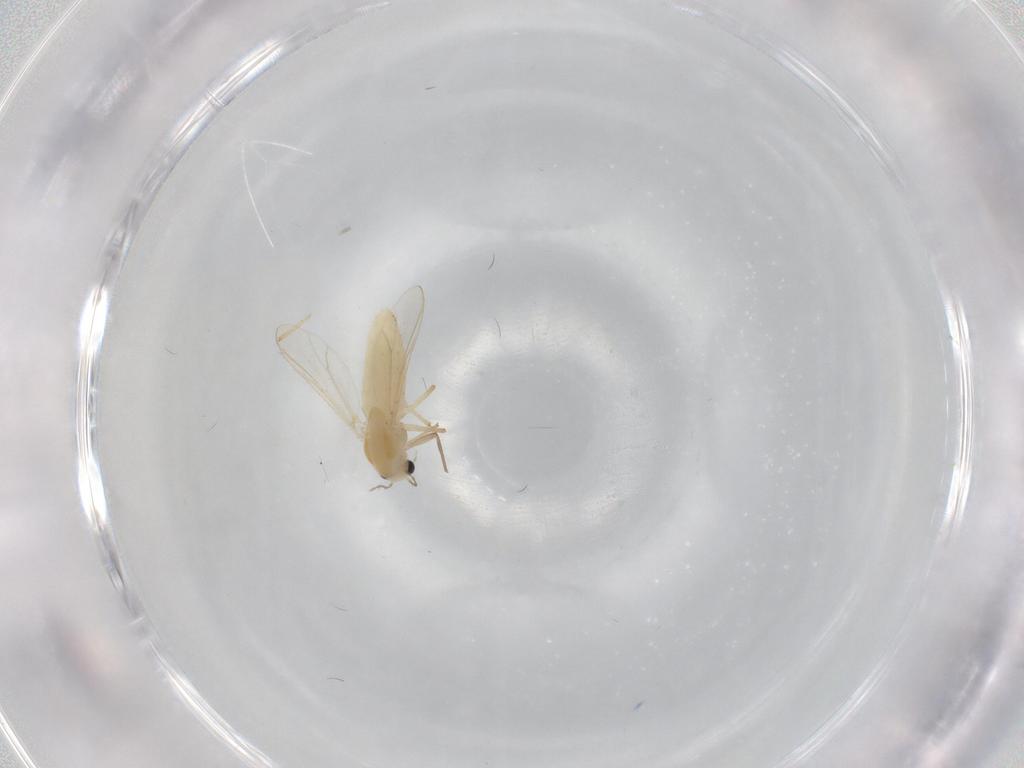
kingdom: Animalia
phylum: Arthropoda
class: Insecta
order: Diptera
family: Chironomidae
